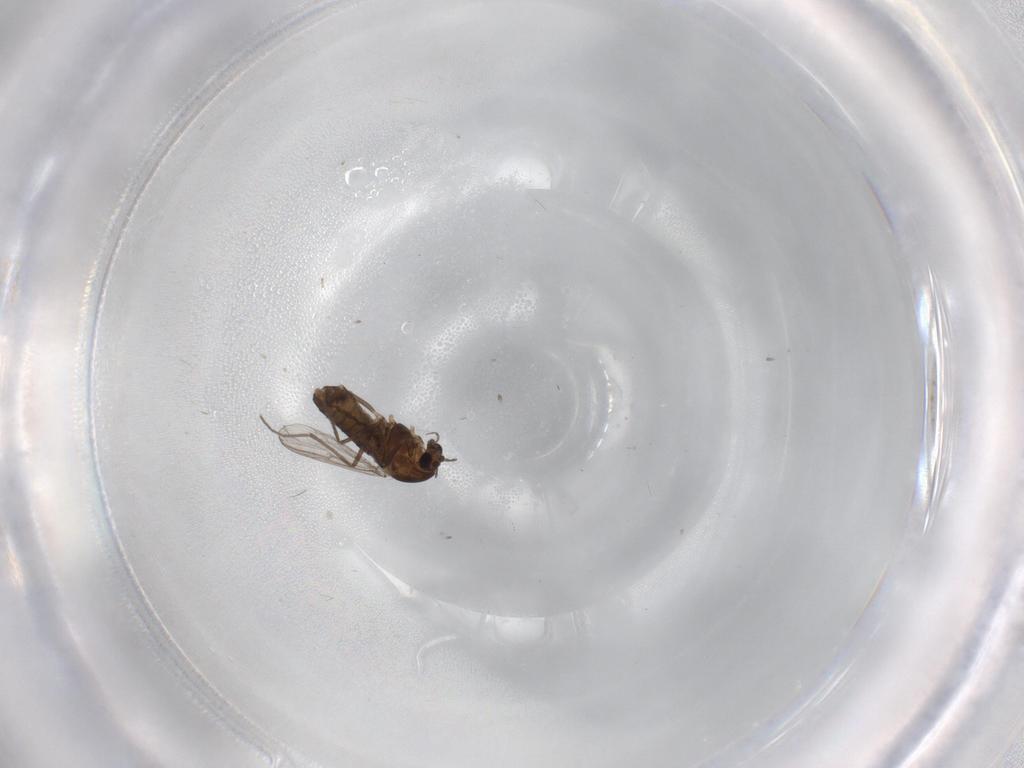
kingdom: Animalia
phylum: Arthropoda
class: Insecta
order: Diptera
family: Chironomidae
